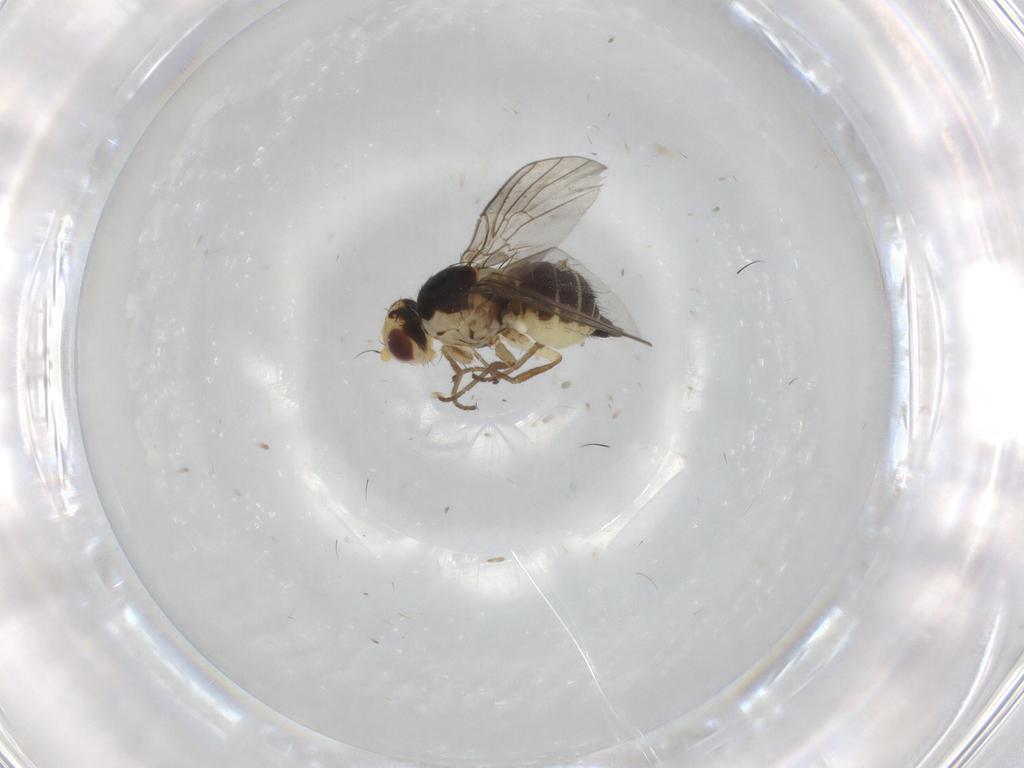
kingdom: Animalia
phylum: Arthropoda
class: Insecta
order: Diptera
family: Agromyzidae
